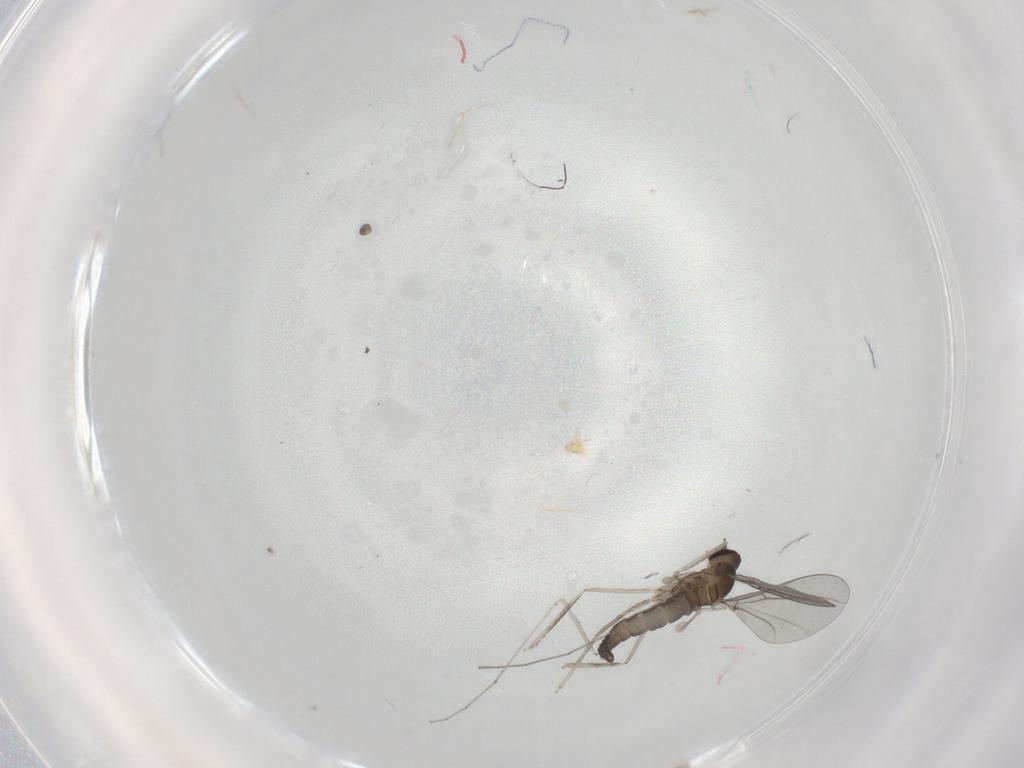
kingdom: Animalia
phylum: Arthropoda
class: Insecta
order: Diptera
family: Cecidomyiidae
